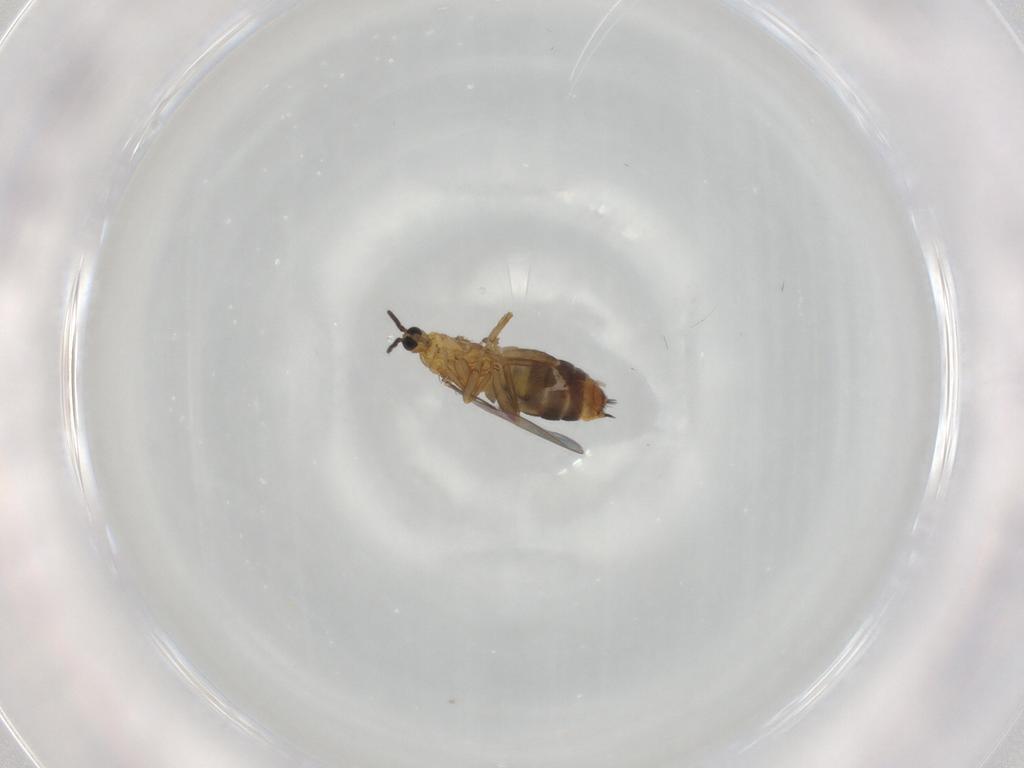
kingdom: Animalia
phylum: Arthropoda
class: Insecta
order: Diptera
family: Scatopsidae
